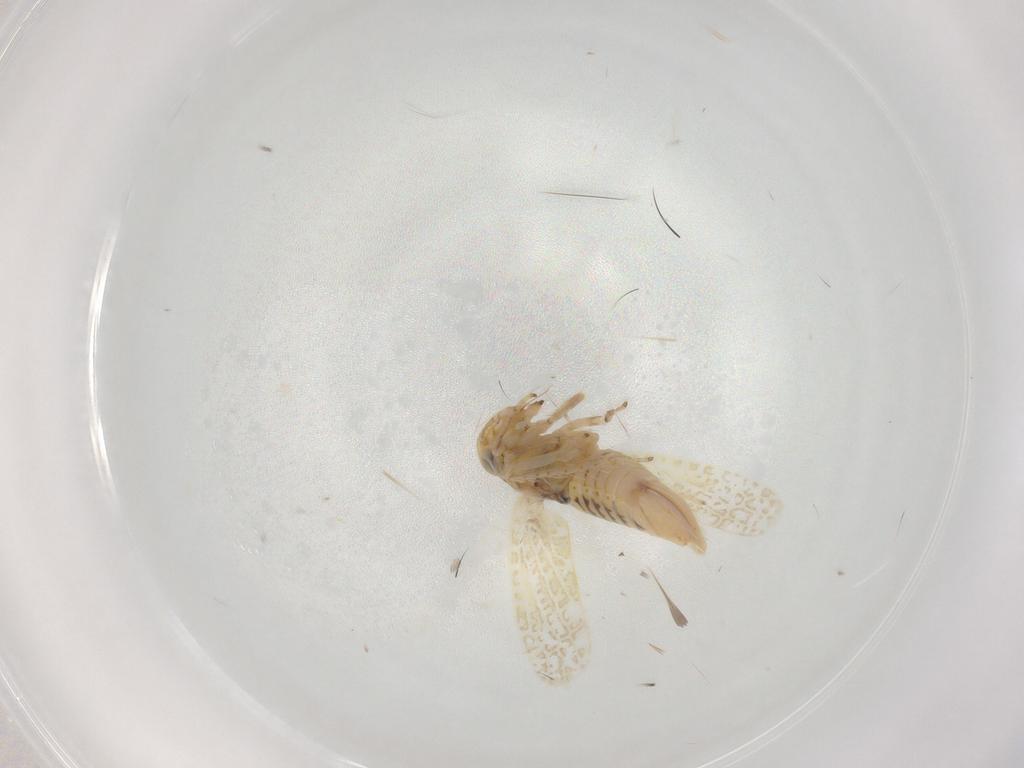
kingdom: Animalia
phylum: Arthropoda
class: Insecta
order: Hemiptera
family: Cicadellidae
